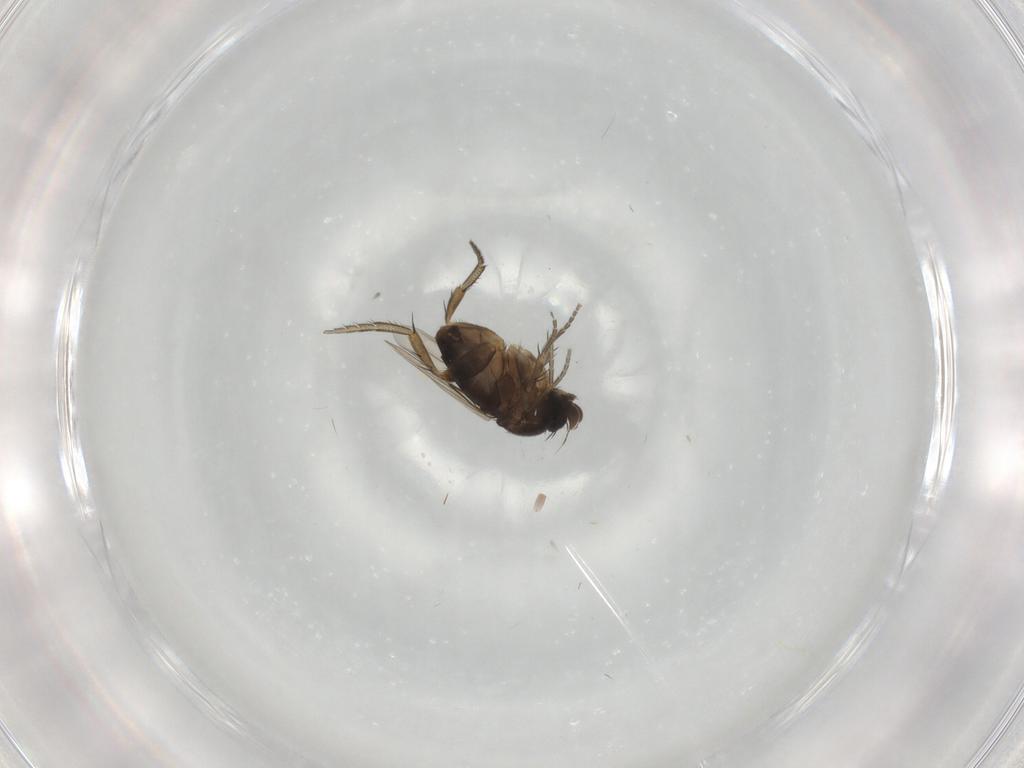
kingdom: Animalia
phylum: Arthropoda
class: Insecta
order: Diptera
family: Phoridae
